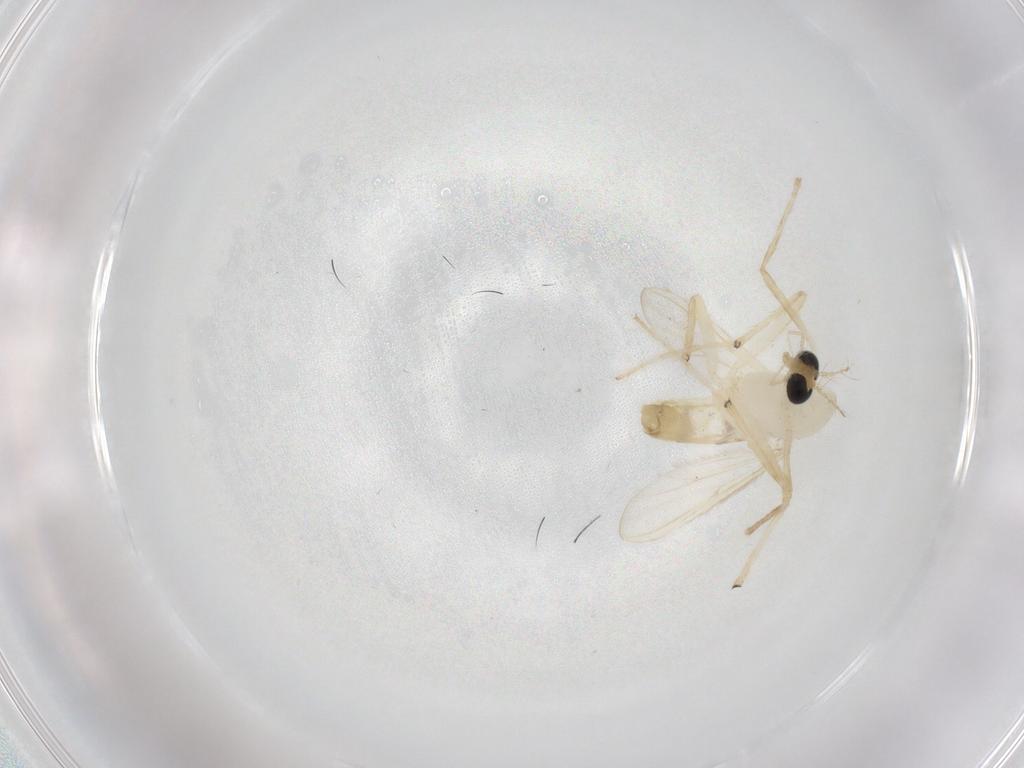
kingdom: Animalia
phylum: Arthropoda
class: Insecta
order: Diptera
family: Chironomidae
